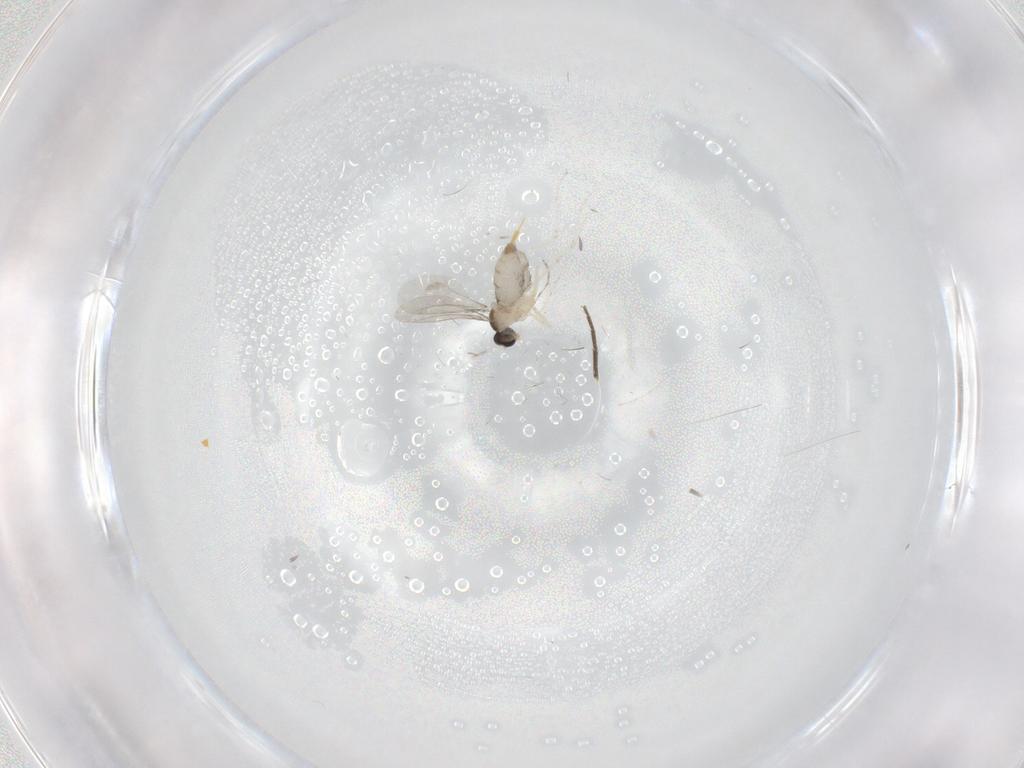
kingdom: Animalia
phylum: Arthropoda
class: Insecta
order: Diptera
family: Cecidomyiidae
